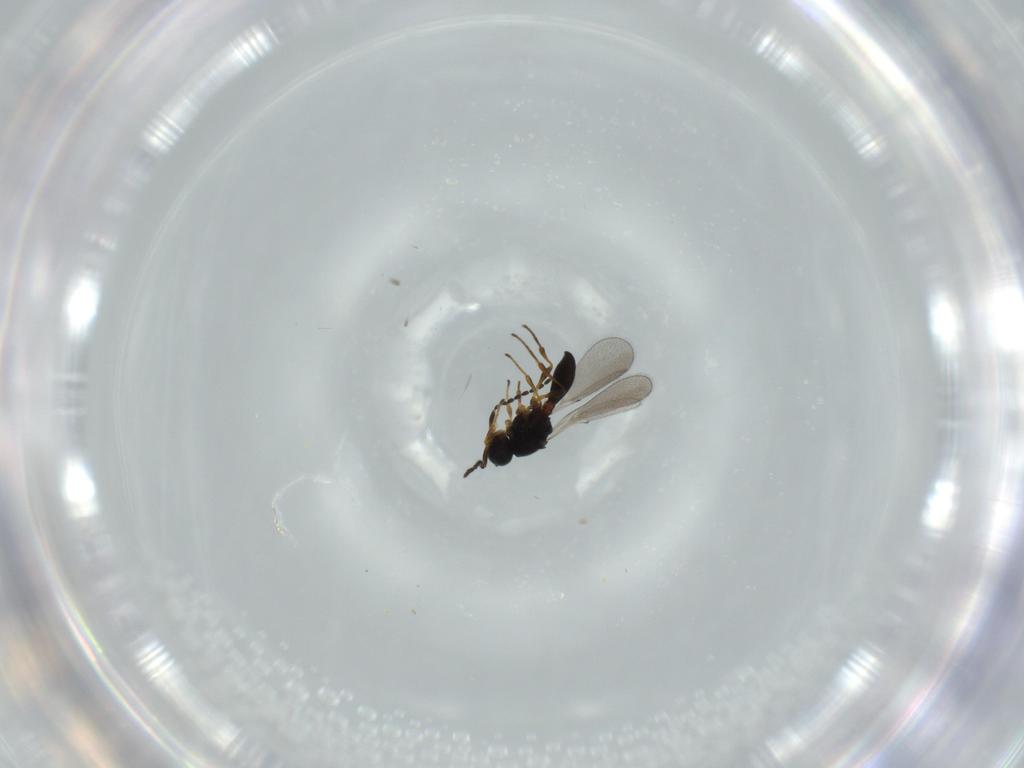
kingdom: Animalia
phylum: Arthropoda
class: Insecta
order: Hymenoptera
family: Platygastridae
